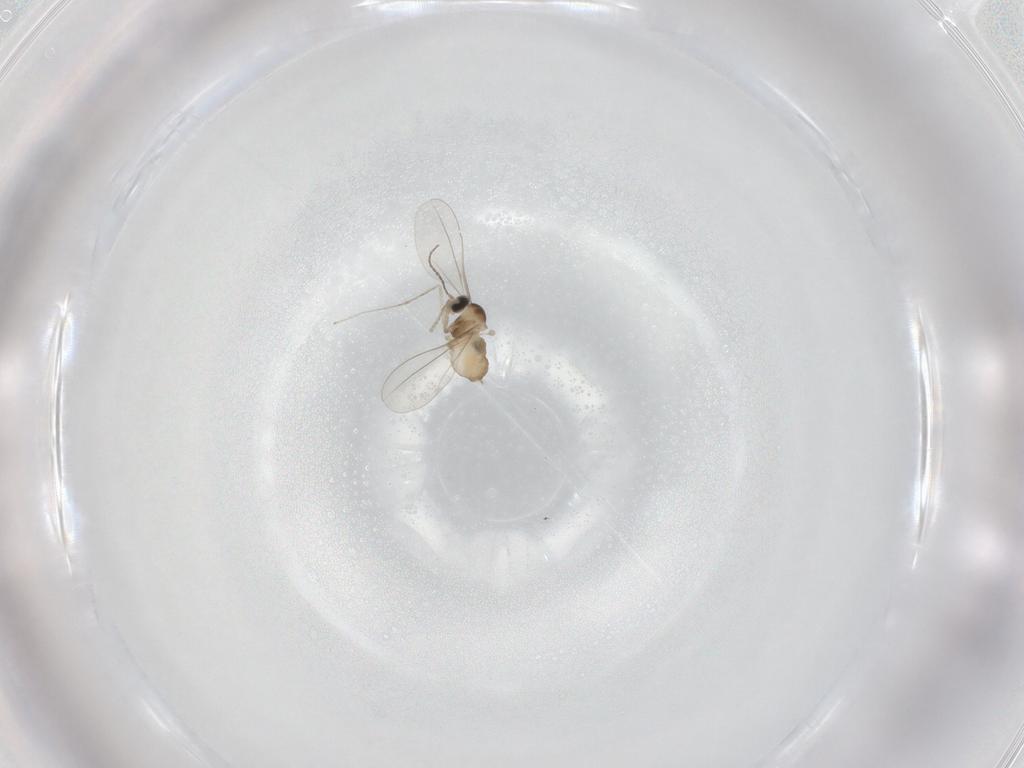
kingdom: Animalia
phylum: Arthropoda
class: Insecta
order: Diptera
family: Cecidomyiidae
